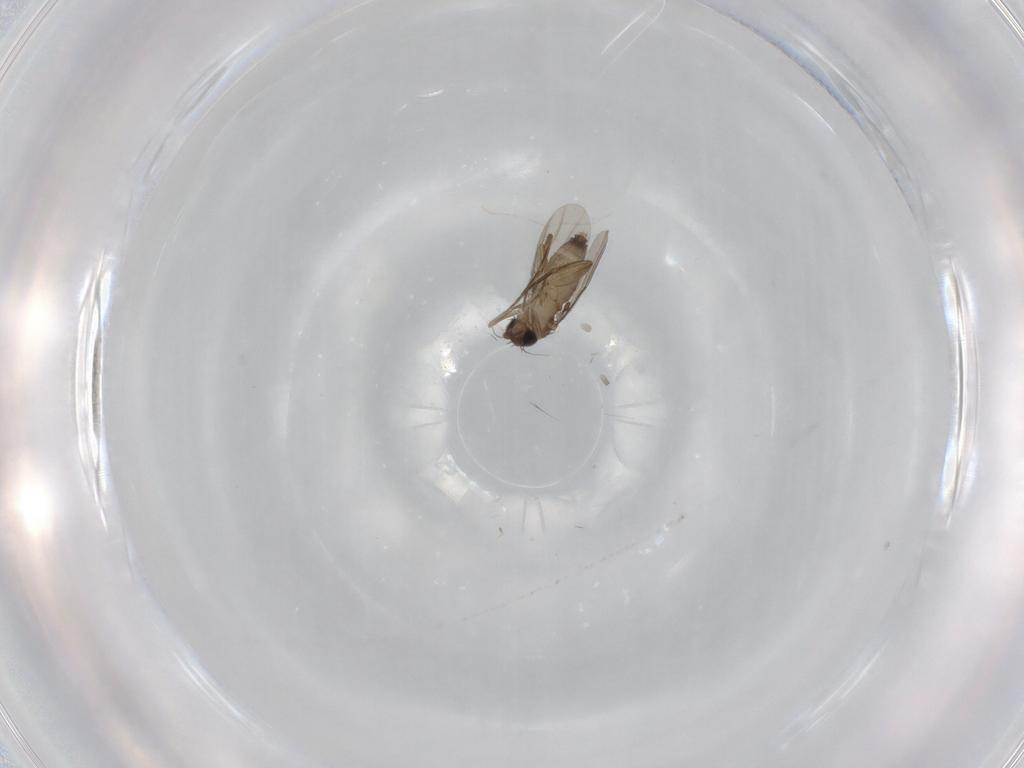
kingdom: Animalia
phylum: Arthropoda
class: Insecta
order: Diptera
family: Phoridae
